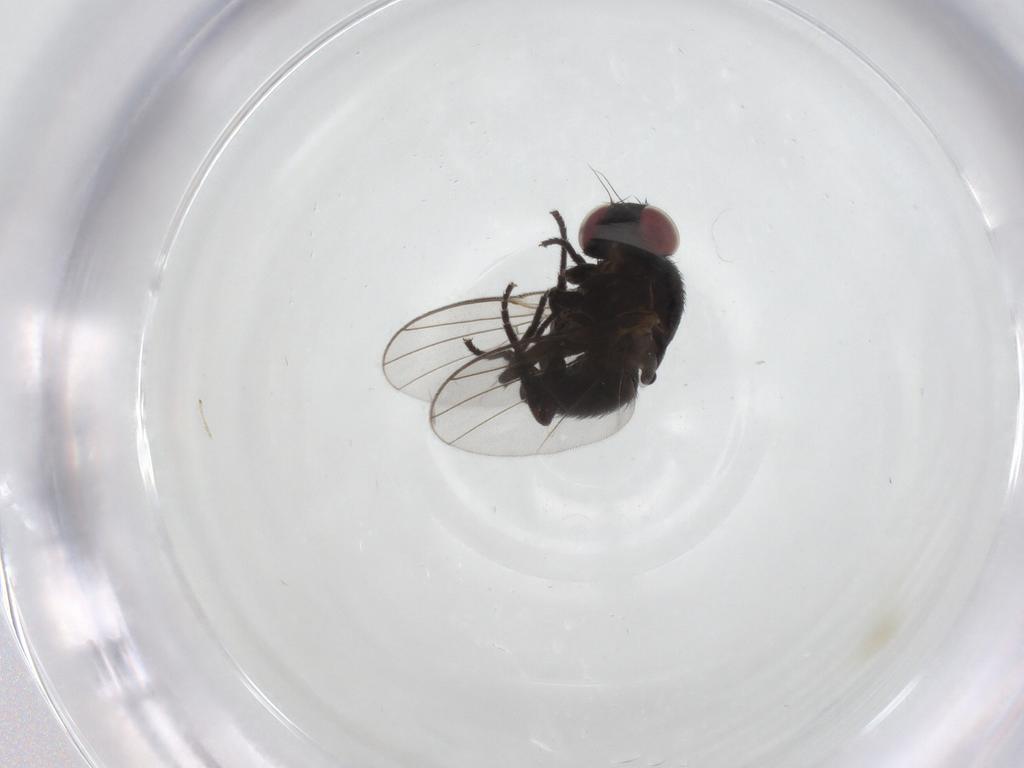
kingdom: Animalia
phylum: Arthropoda
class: Insecta
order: Diptera
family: Agromyzidae
